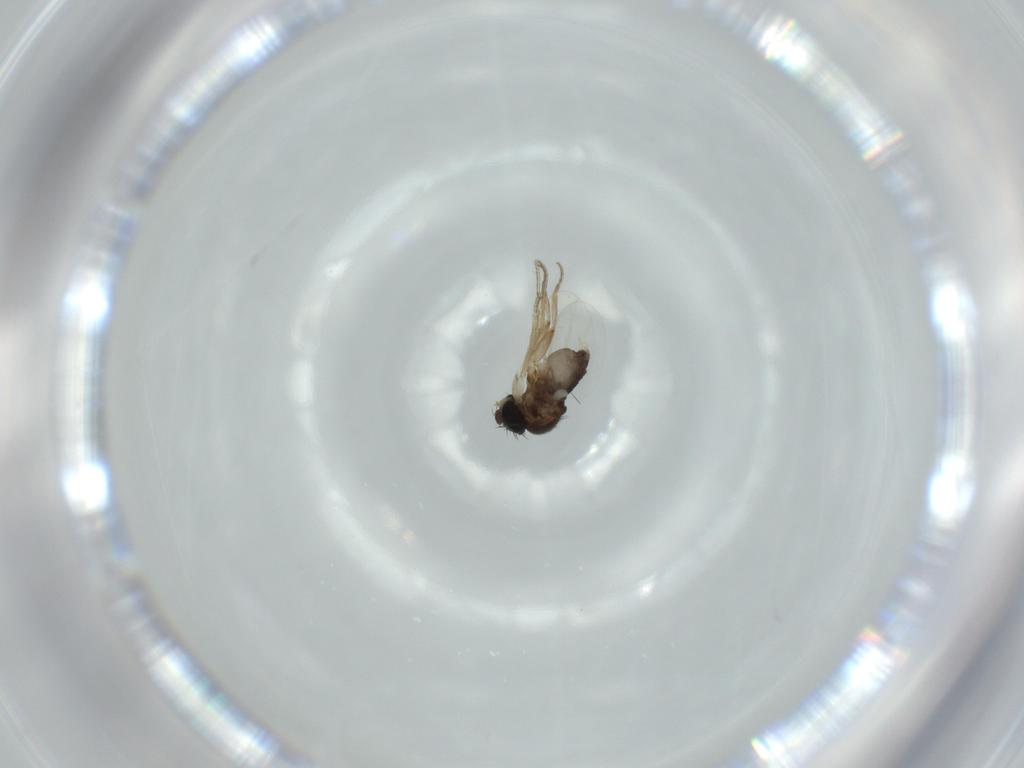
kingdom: Animalia
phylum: Arthropoda
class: Insecta
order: Diptera
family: Phoridae
